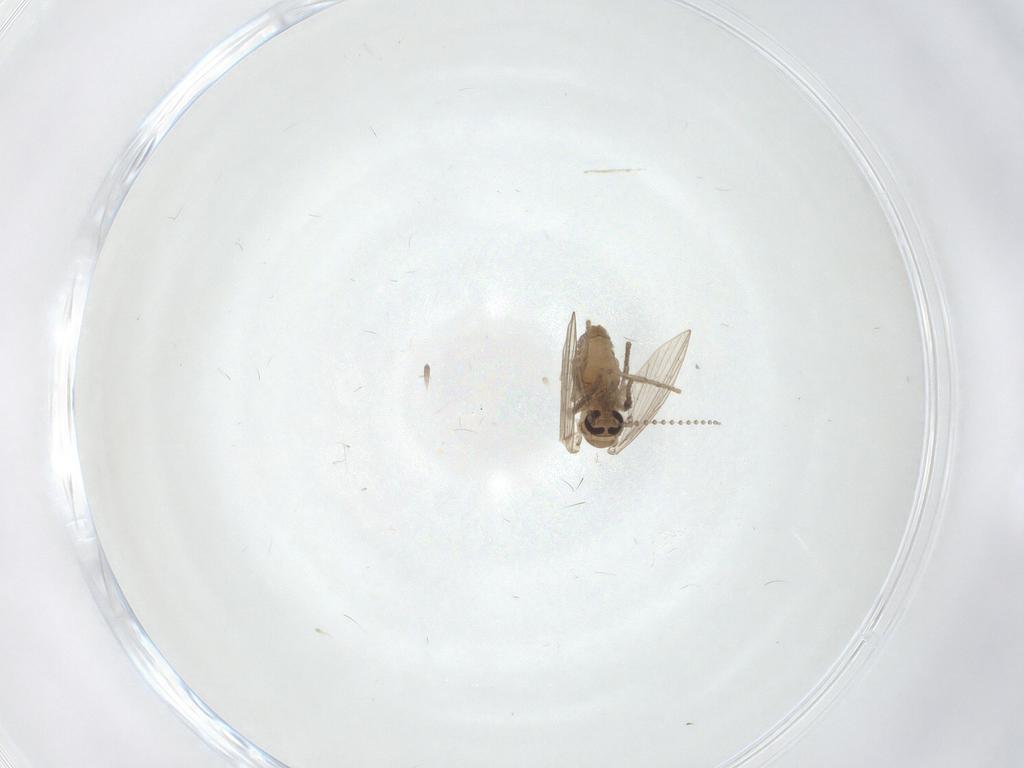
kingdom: Animalia
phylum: Arthropoda
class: Insecta
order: Diptera
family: Psychodidae
